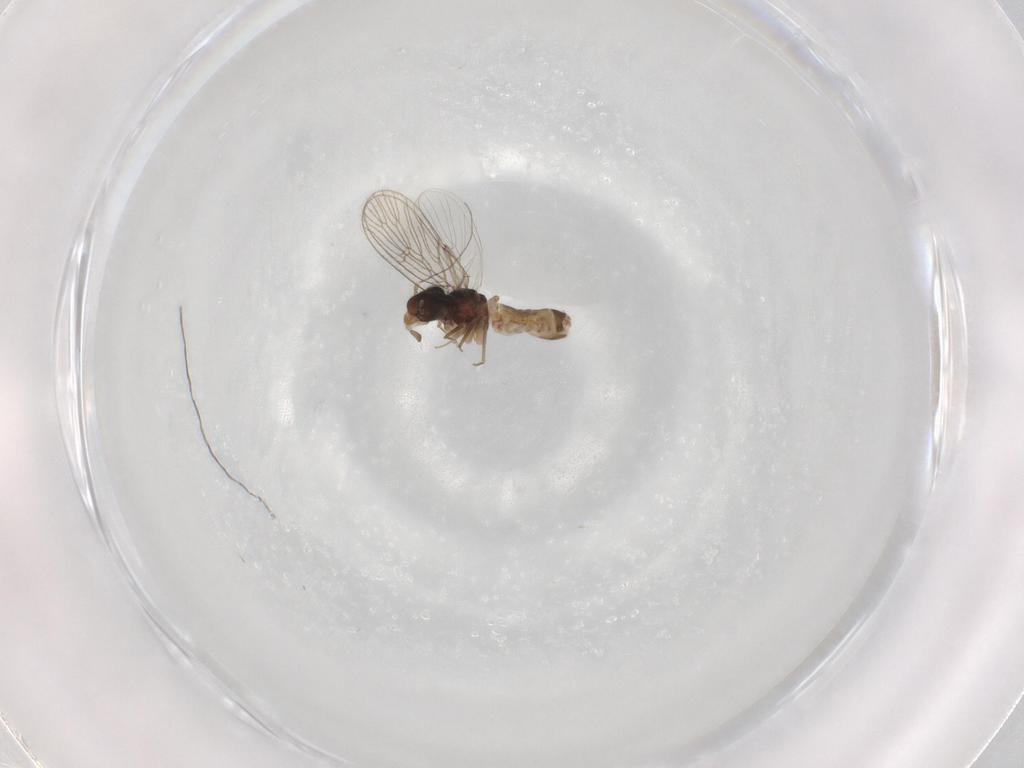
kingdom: Animalia
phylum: Arthropoda
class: Insecta
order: Psocodea
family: Psoquillidae
